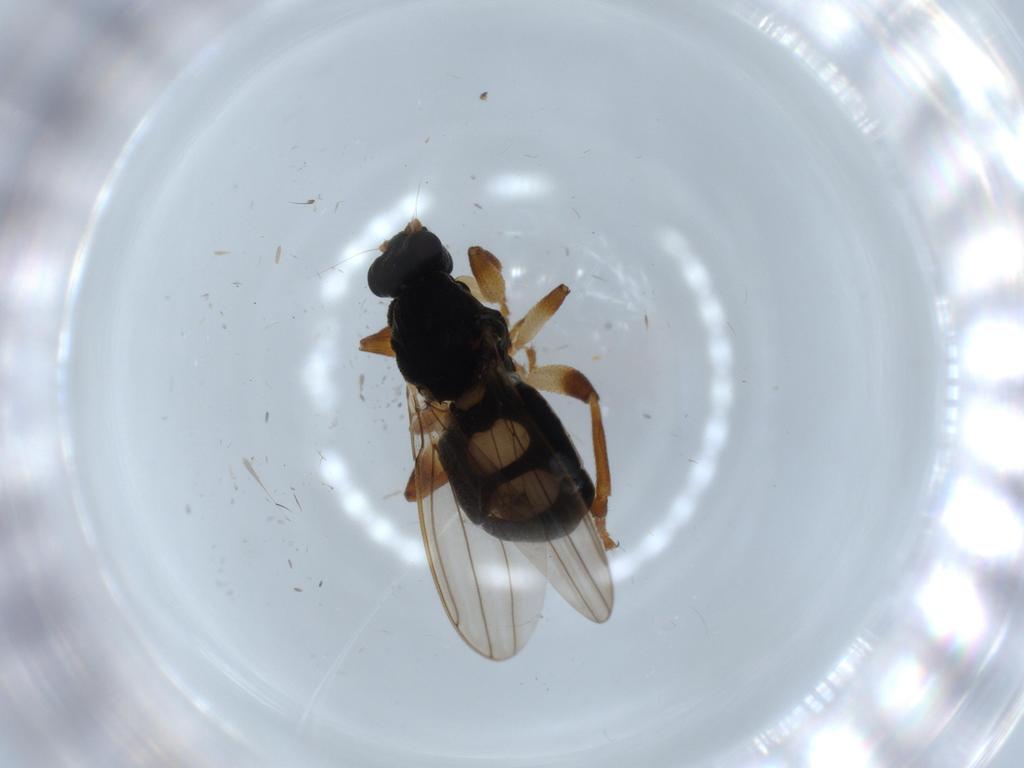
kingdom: Animalia
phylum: Arthropoda
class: Insecta
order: Diptera
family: Sphaeroceridae
